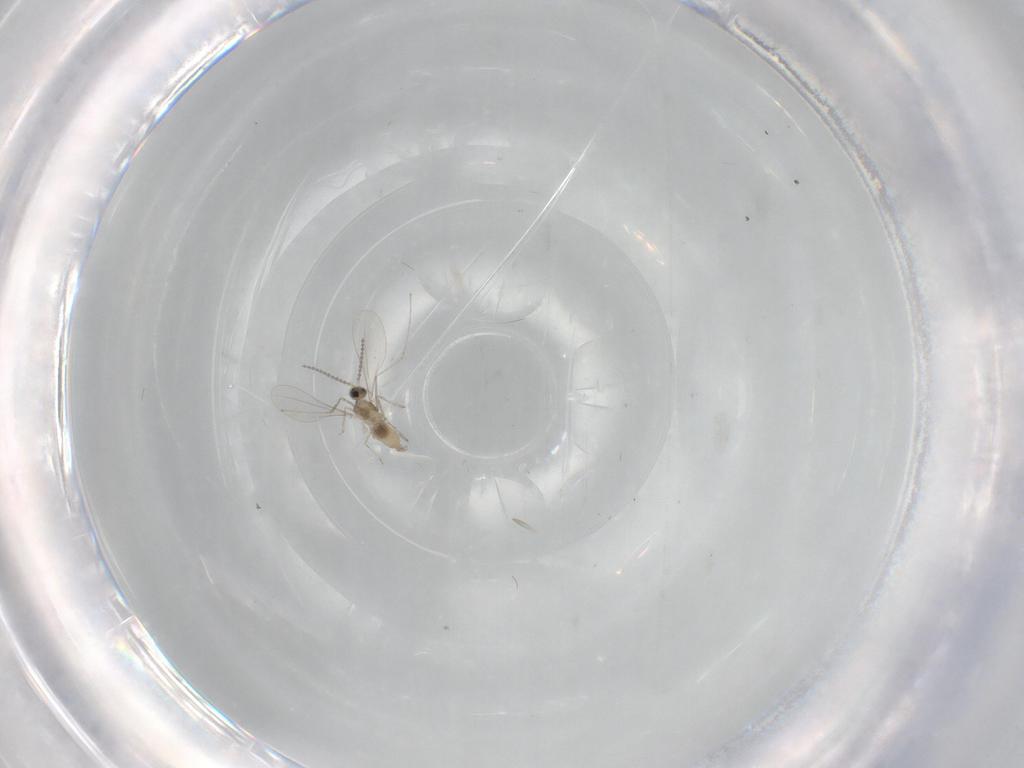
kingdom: Animalia
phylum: Arthropoda
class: Insecta
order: Diptera
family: Cecidomyiidae
